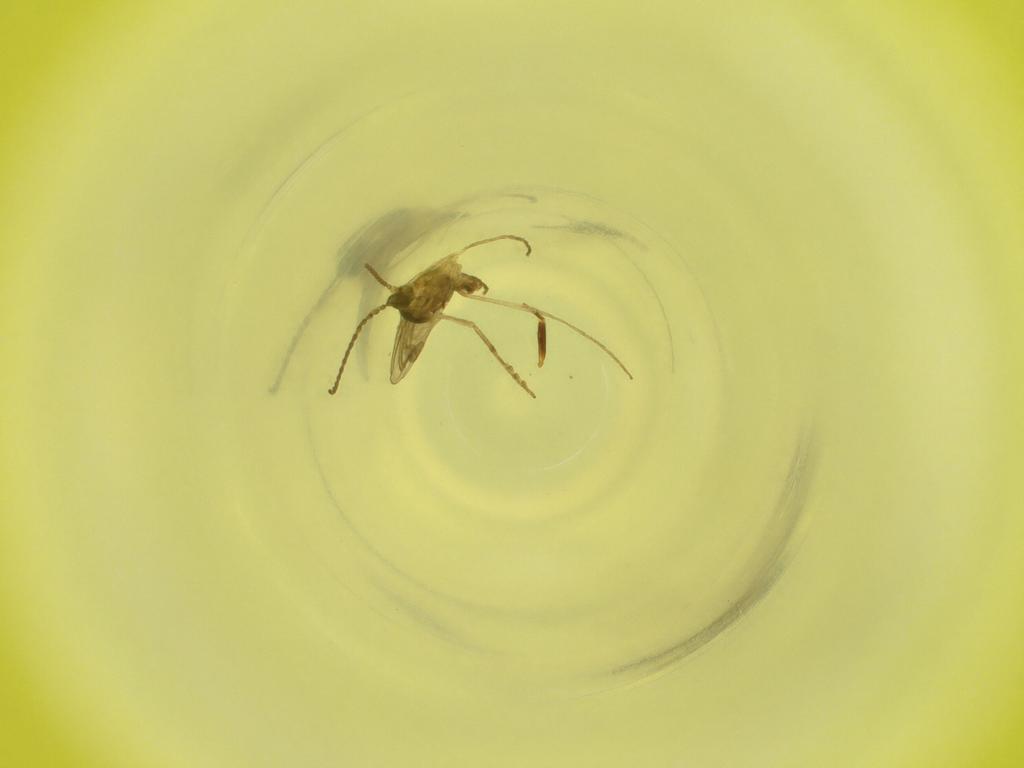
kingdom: Animalia
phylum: Arthropoda
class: Insecta
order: Diptera
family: Cecidomyiidae
